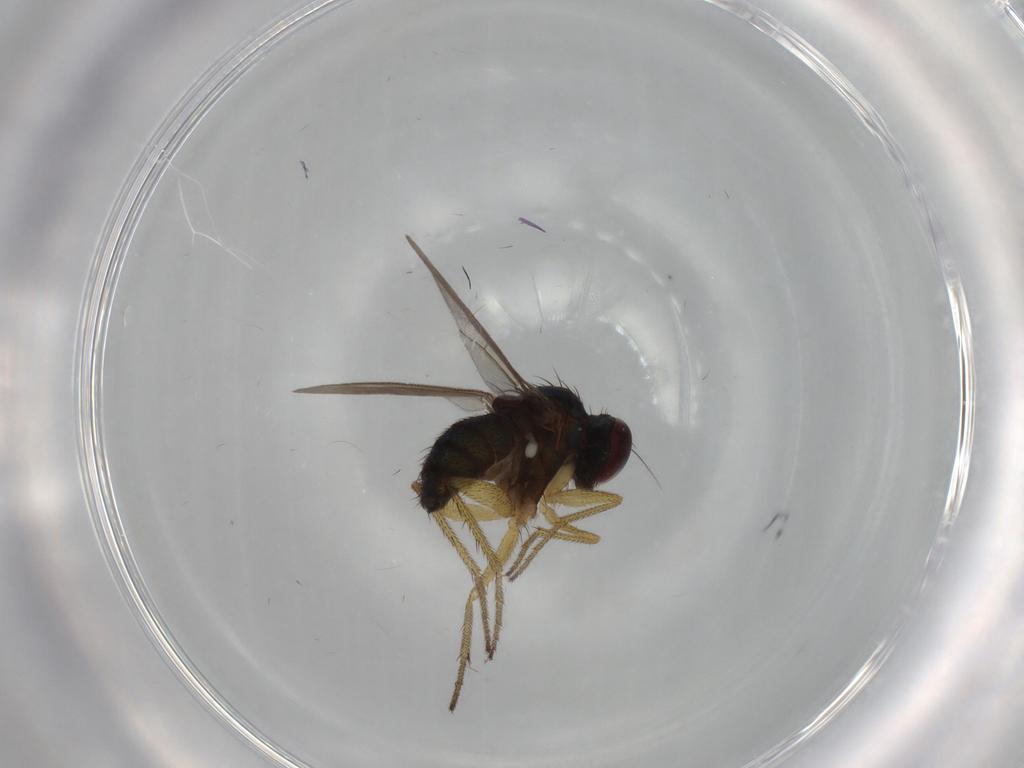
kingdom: Animalia
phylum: Arthropoda
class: Insecta
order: Diptera
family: Dolichopodidae
